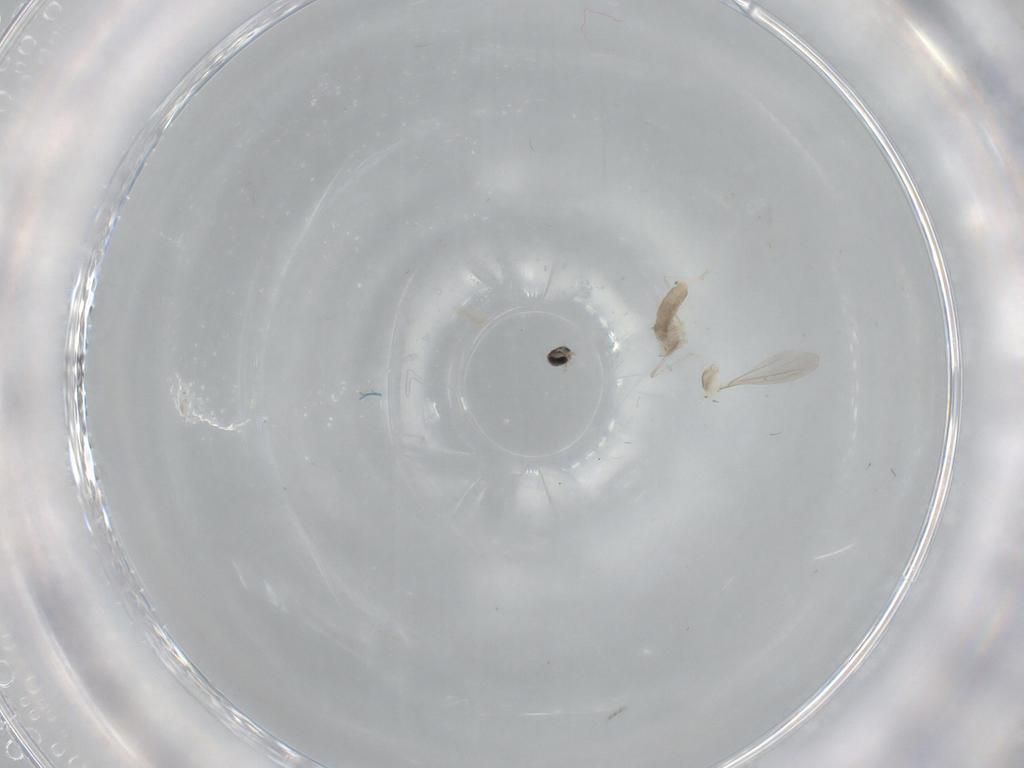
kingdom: Animalia
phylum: Arthropoda
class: Insecta
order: Diptera
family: Cecidomyiidae
